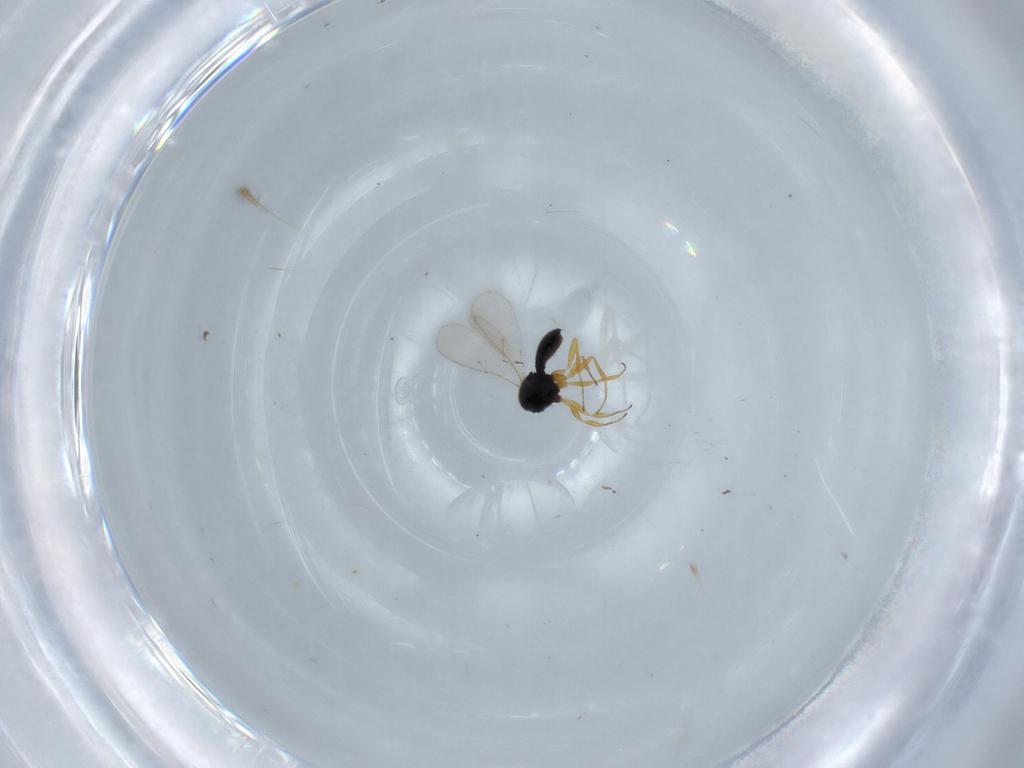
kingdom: Animalia
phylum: Arthropoda
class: Insecta
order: Hymenoptera
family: Scelionidae
